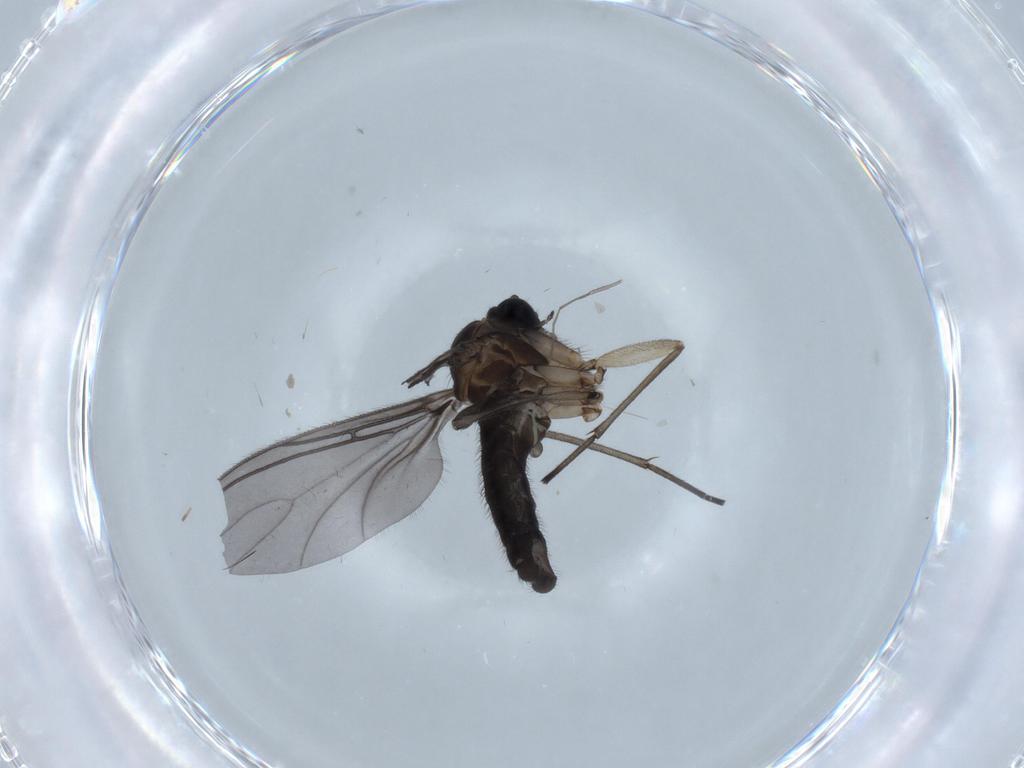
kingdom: Animalia
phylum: Arthropoda
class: Insecta
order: Diptera
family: Sciaridae
